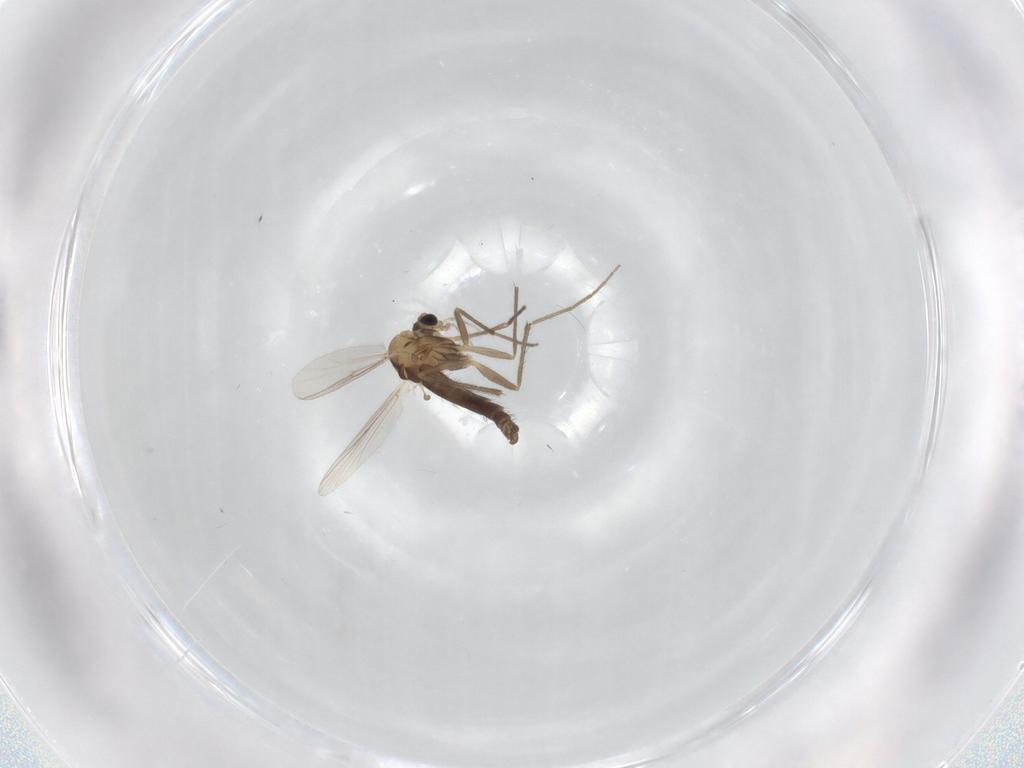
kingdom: Animalia
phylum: Arthropoda
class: Insecta
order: Diptera
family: Chironomidae
